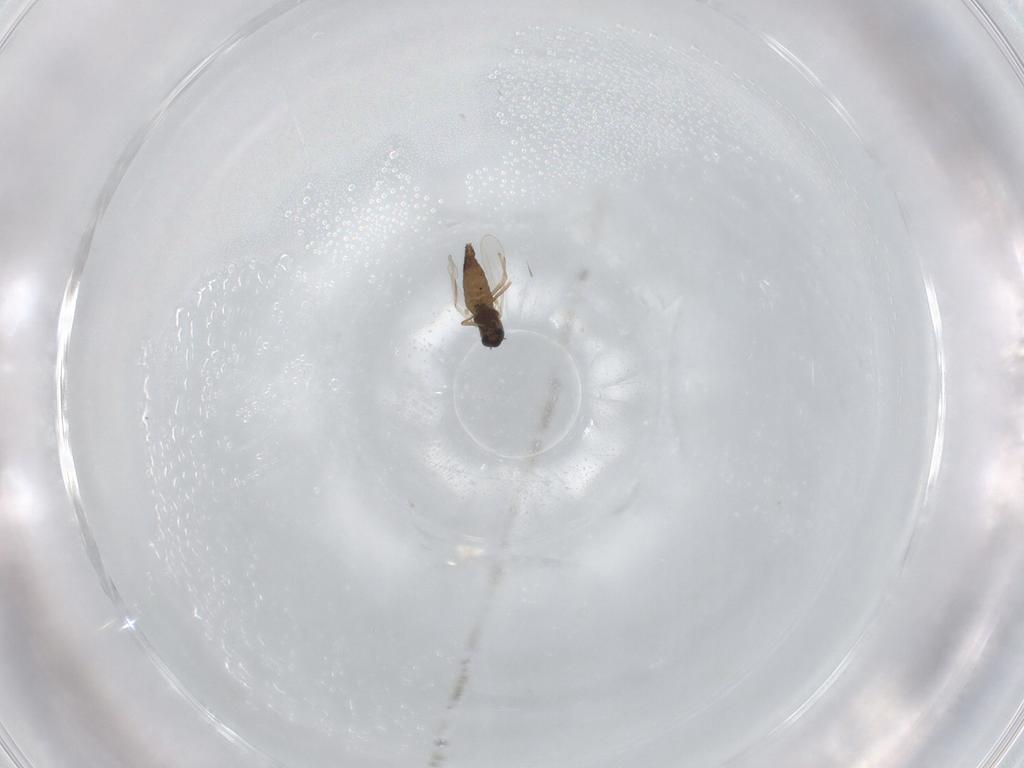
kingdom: Animalia
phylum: Arthropoda
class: Insecta
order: Diptera
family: Chironomidae
